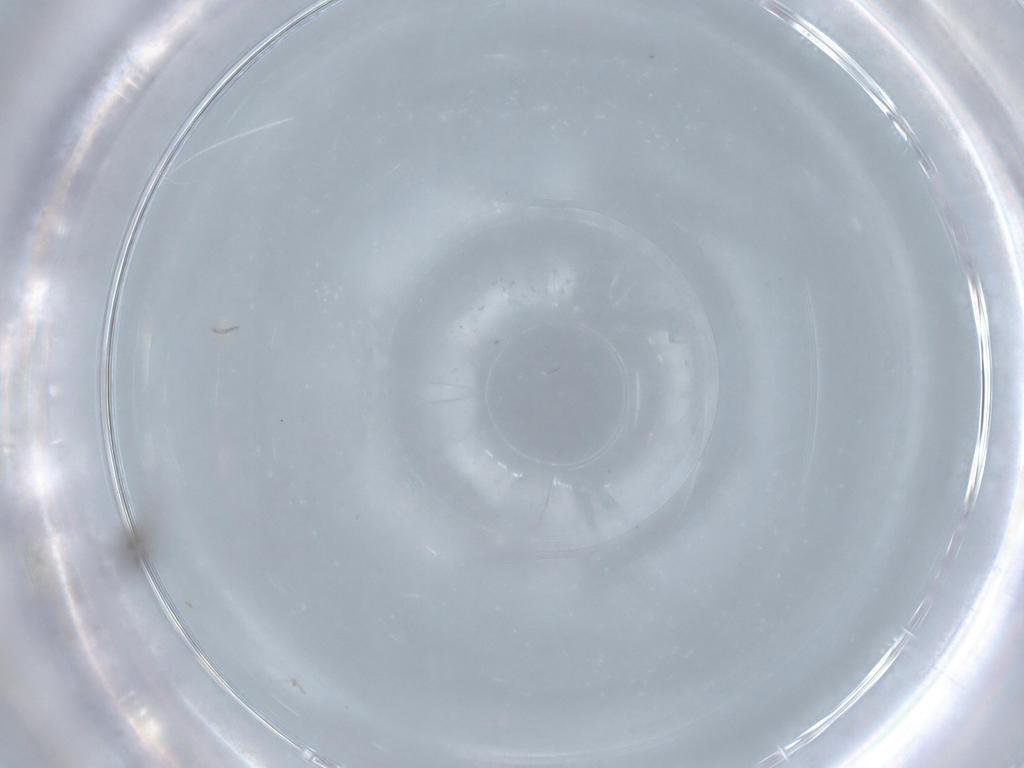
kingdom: Animalia
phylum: Arthropoda
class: Insecta
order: Hymenoptera
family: Mymaridae
